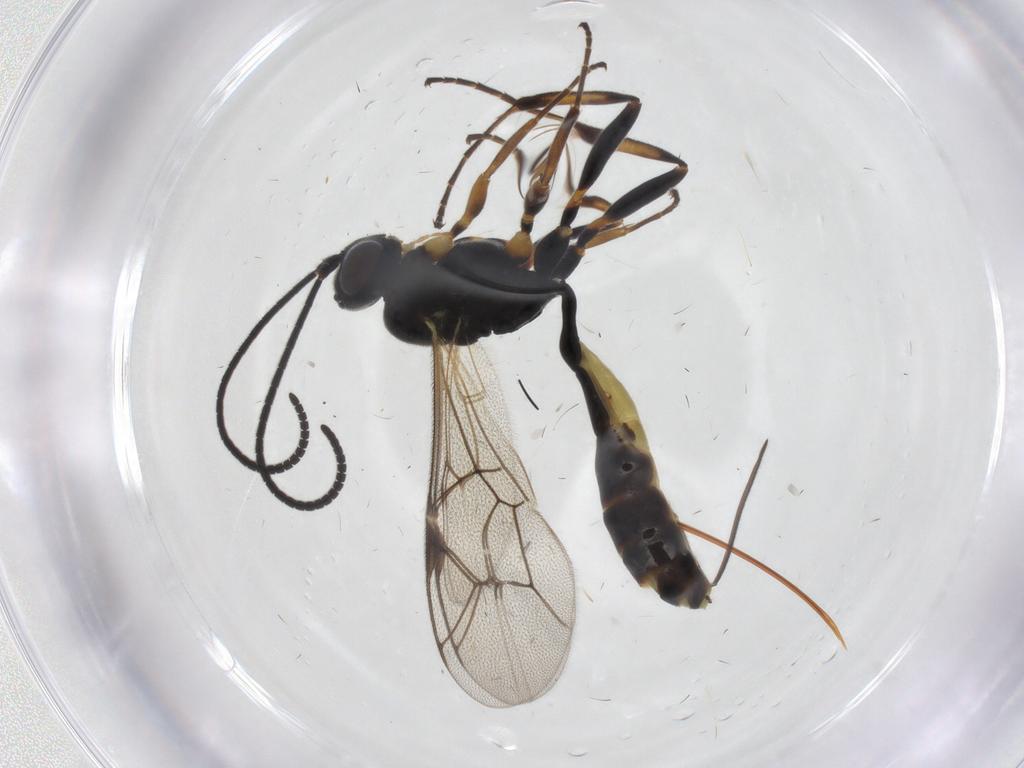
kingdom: Animalia
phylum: Arthropoda
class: Insecta
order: Hymenoptera
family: Ichneumonidae
